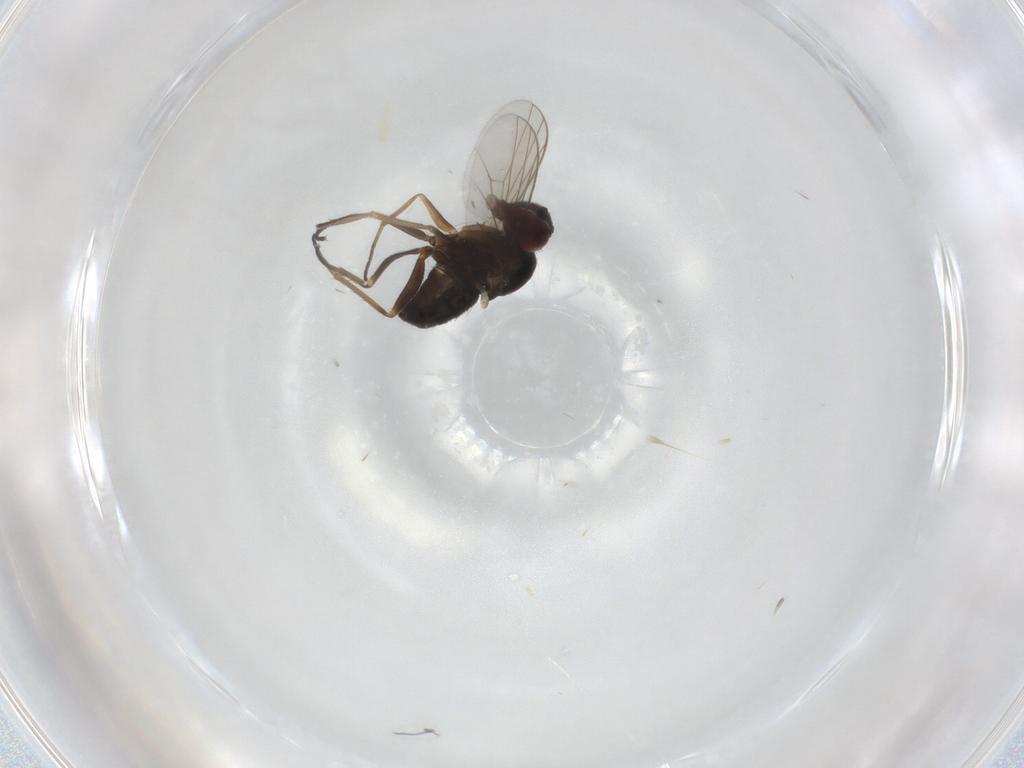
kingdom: Animalia
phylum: Arthropoda
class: Insecta
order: Diptera
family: Dolichopodidae
